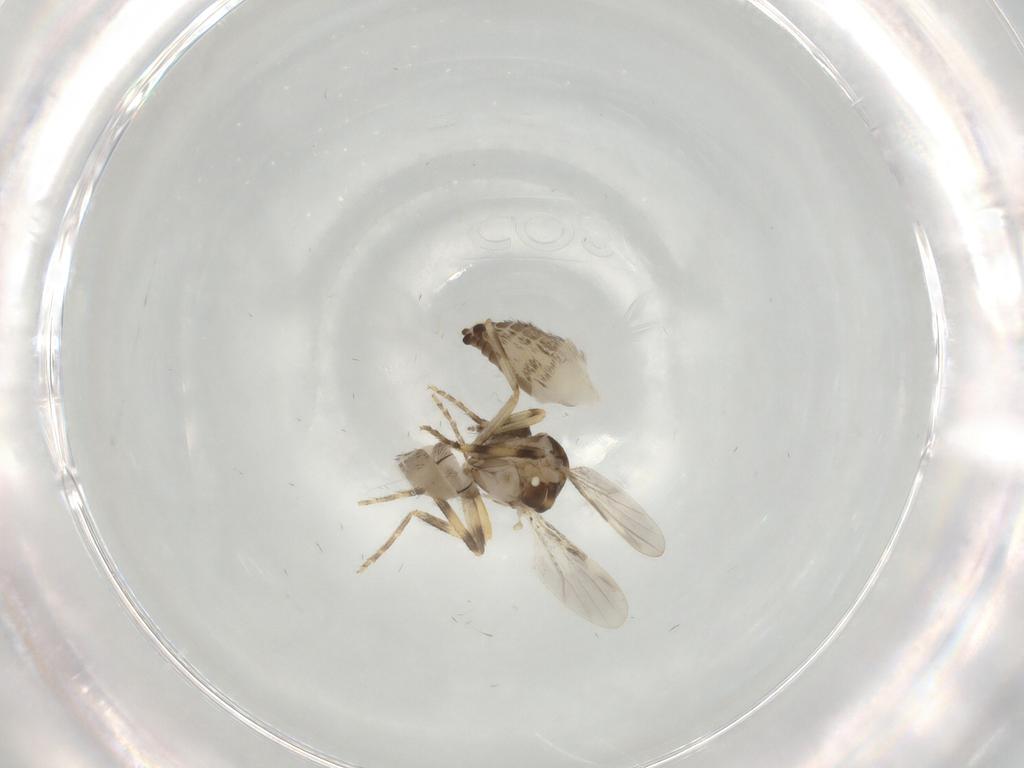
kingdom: Animalia
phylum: Arthropoda
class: Insecta
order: Diptera
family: Ceratopogonidae
